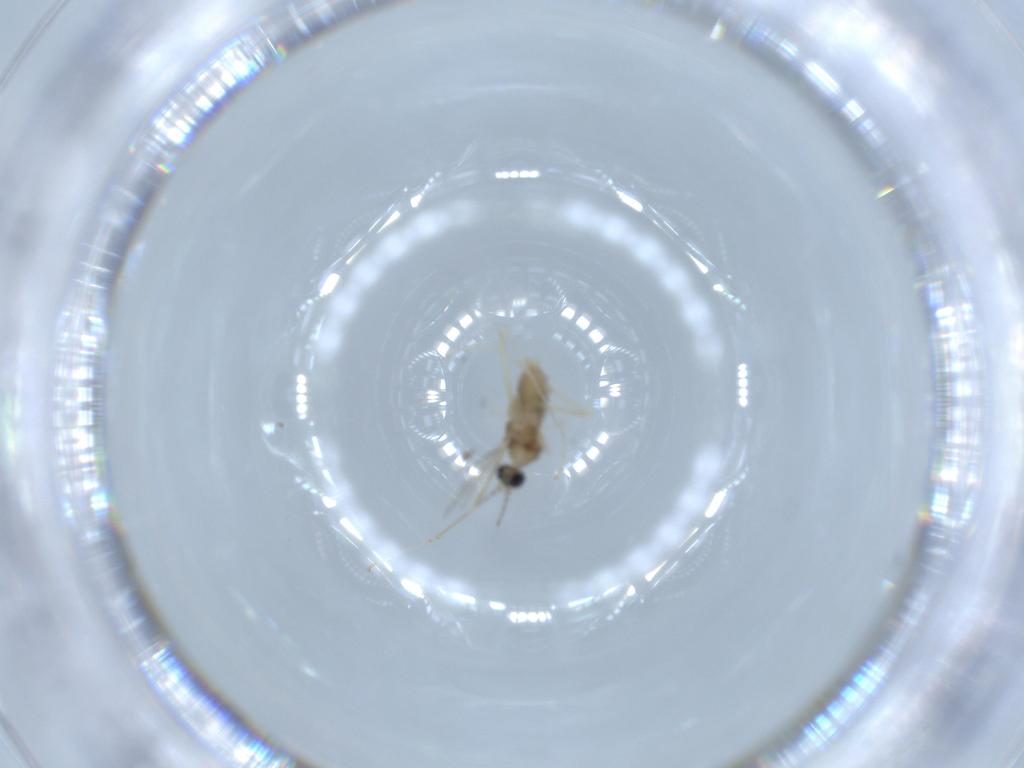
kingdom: Animalia
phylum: Arthropoda
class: Insecta
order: Diptera
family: Cecidomyiidae
